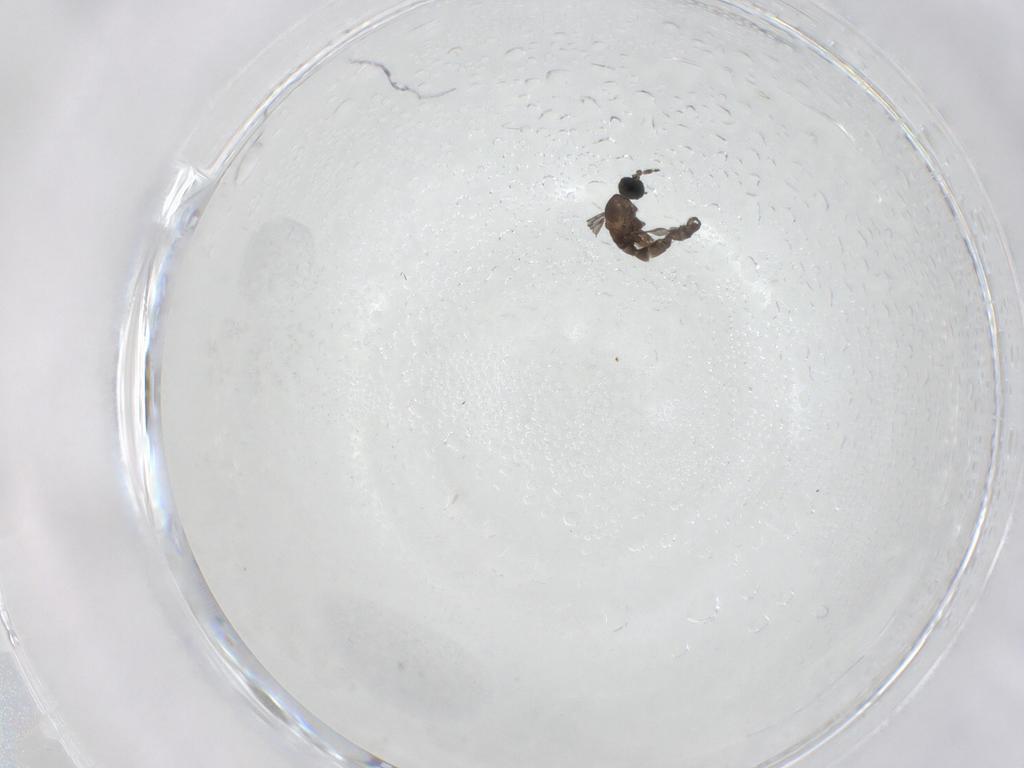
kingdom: Animalia
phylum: Arthropoda
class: Insecta
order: Diptera
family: Sciaridae
